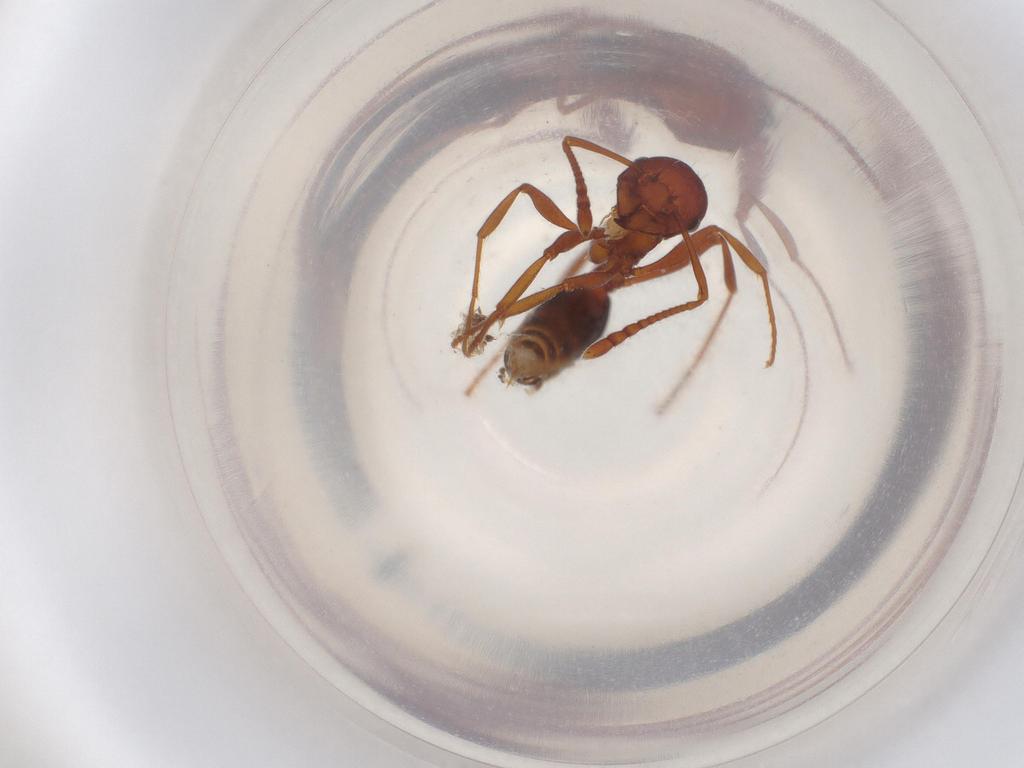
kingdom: Animalia
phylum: Arthropoda
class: Insecta
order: Hymenoptera
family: Formicidae
